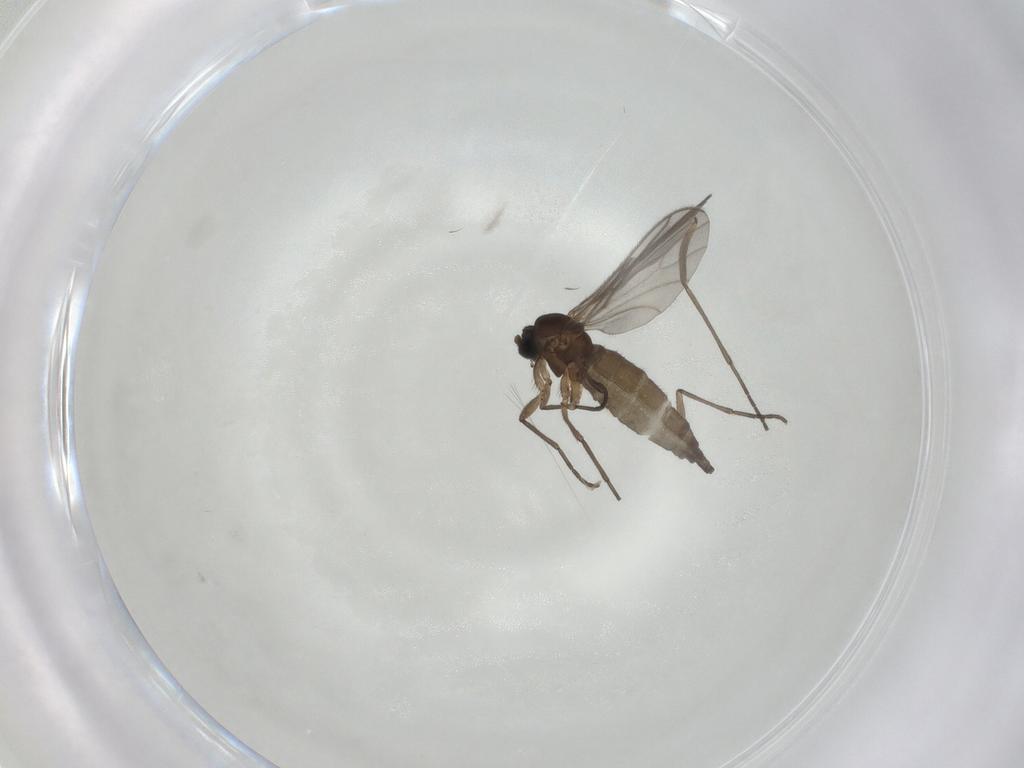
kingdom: Animalia
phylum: Arthropoda
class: Insecta
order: Diptera
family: Sciaridae
